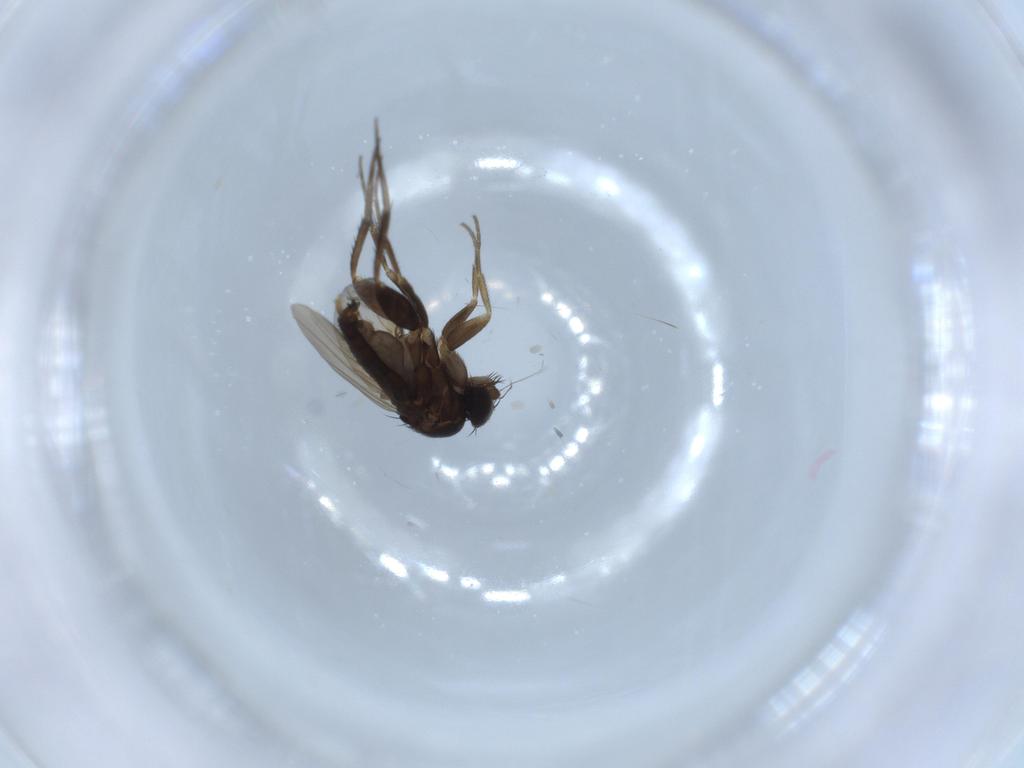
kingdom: Animalia
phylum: Arthropoda
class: Insecta
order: Diptera
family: Phoridae
